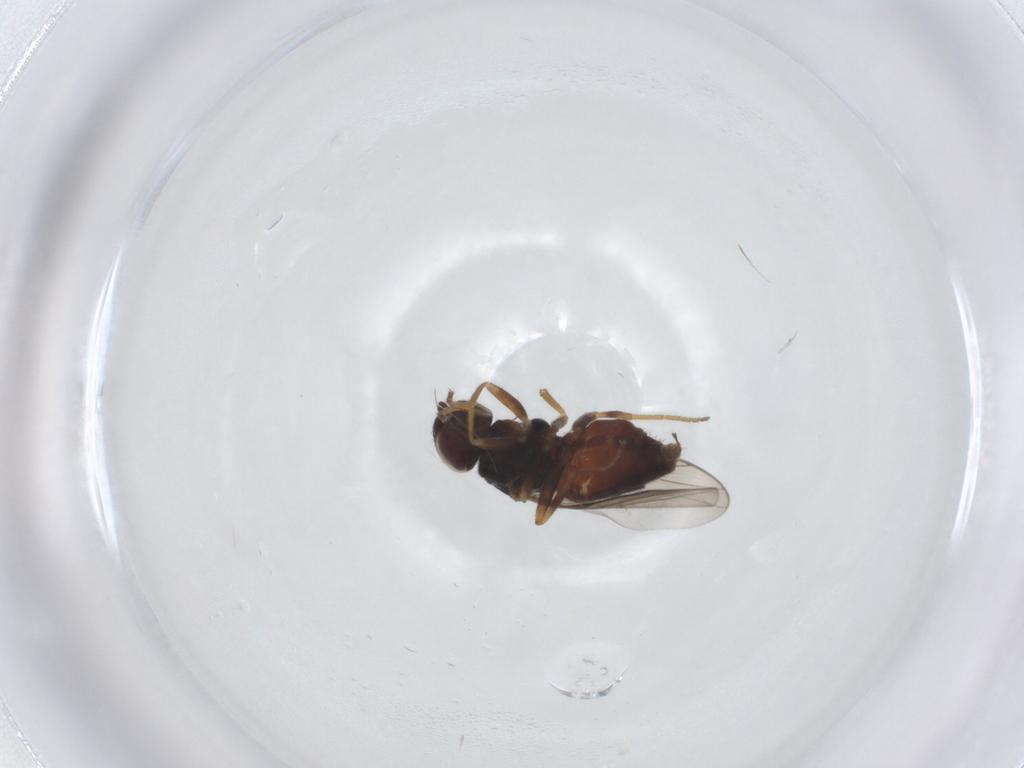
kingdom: Animalia
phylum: Arthropoda
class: Insecta
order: Diptera
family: Chloropidae
